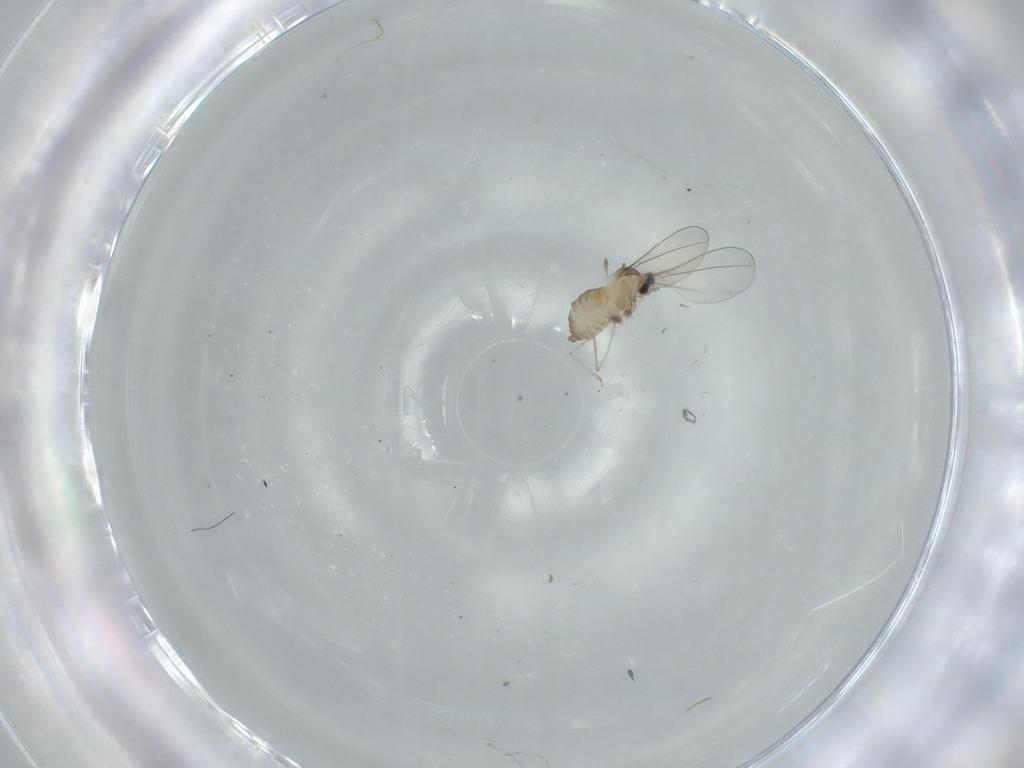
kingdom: Animalia
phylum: Arthropoda
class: Insecta
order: Diptera
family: Cecidomyiidae
